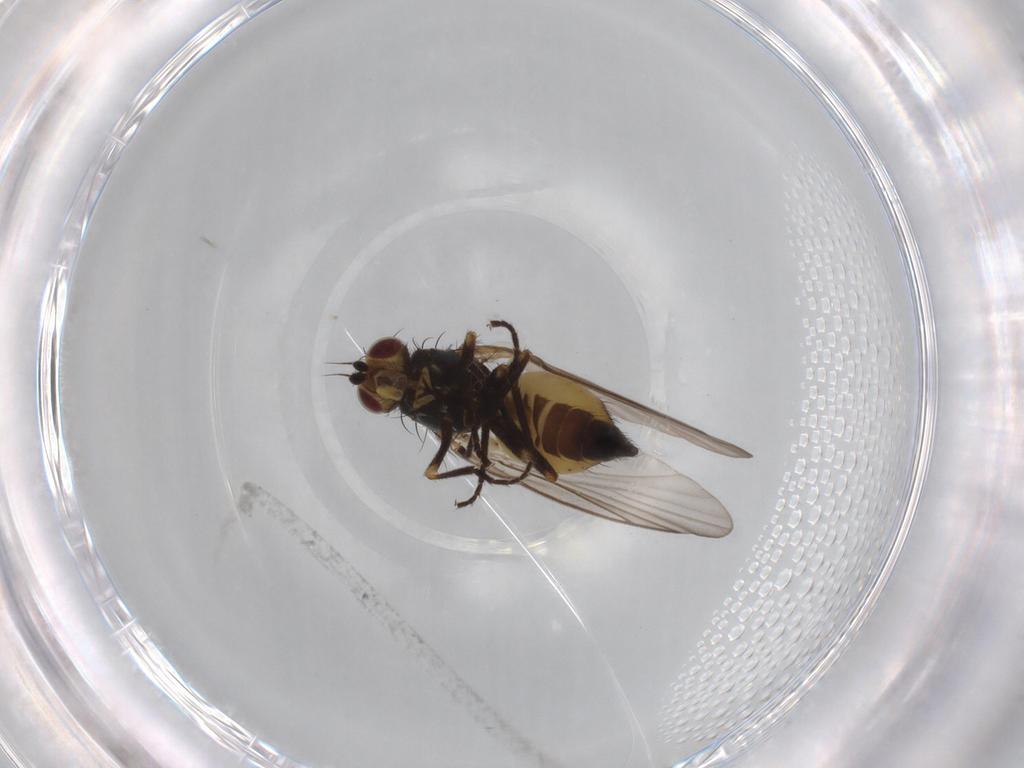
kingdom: Animalia
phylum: Arthropoda
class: Insecta
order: Diptera
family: Agromyzidae
